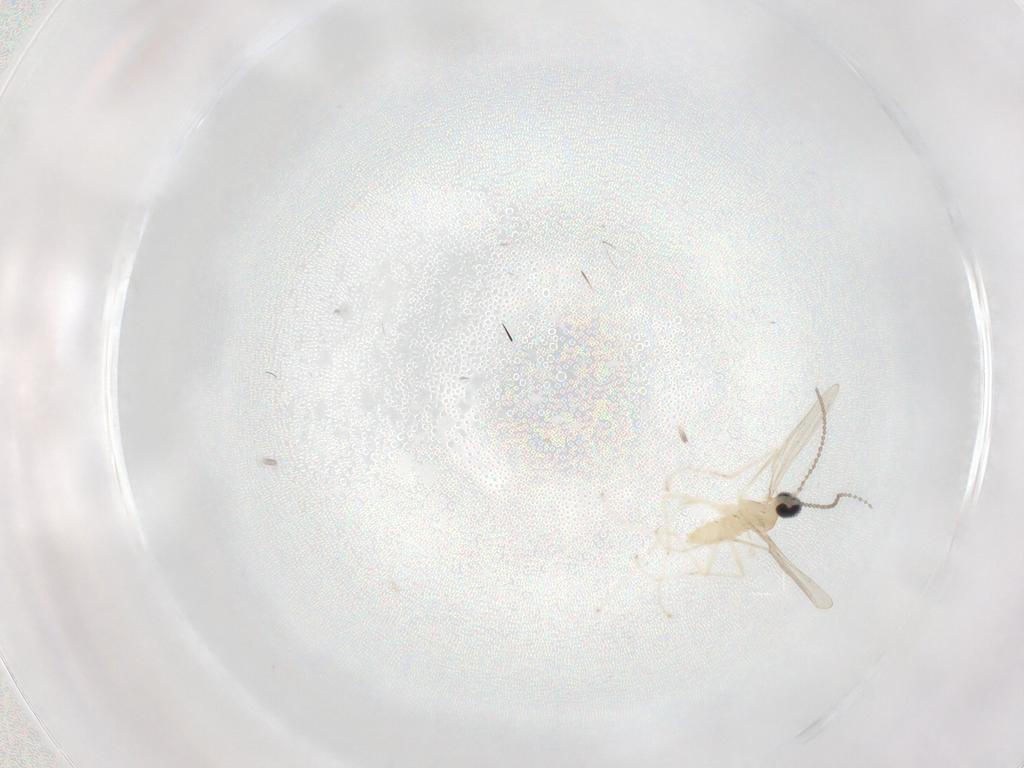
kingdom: Animalia
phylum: Arthropoda
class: Insecta
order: Diptera
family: Cecidomyiidae
